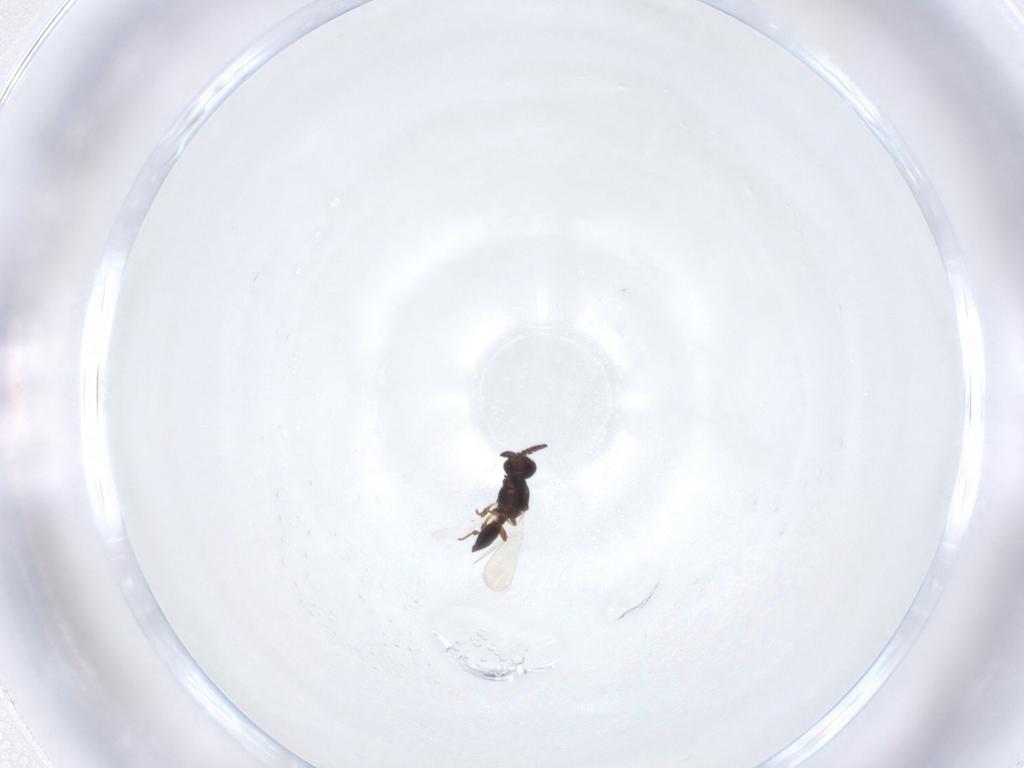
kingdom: Animalia
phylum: Arthropoda
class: Insecta
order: Hymenoptera
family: Platygastridae
